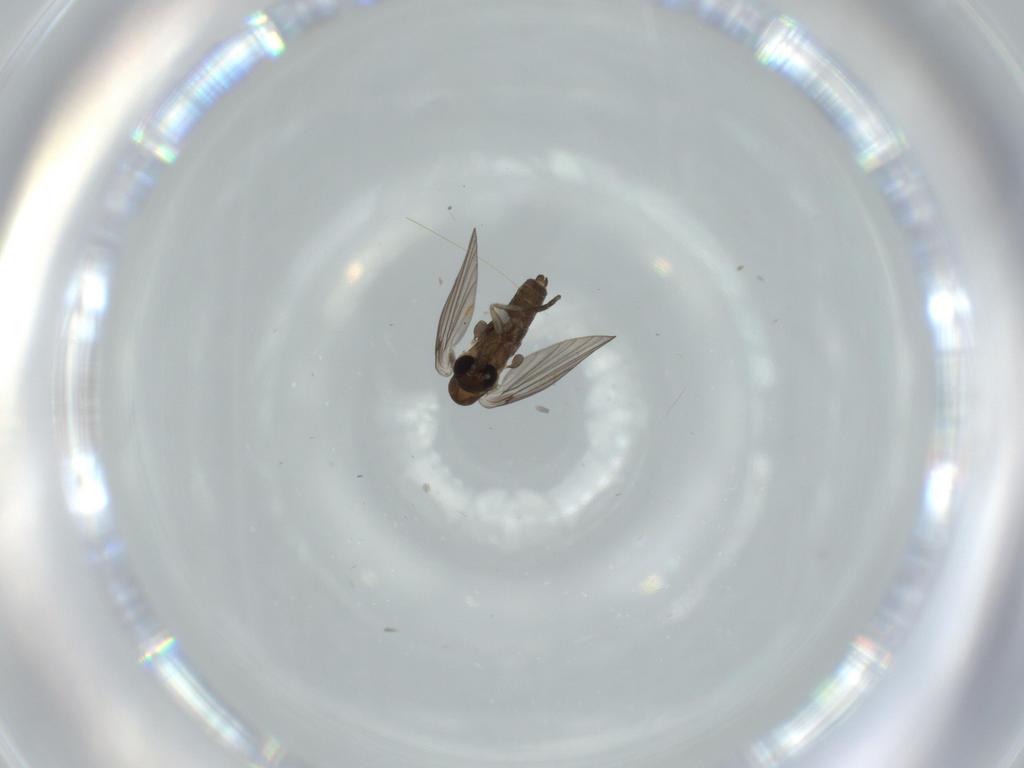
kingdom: Animalia
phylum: Arthropoda
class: Insecta
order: Diptera
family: Psychodidae
